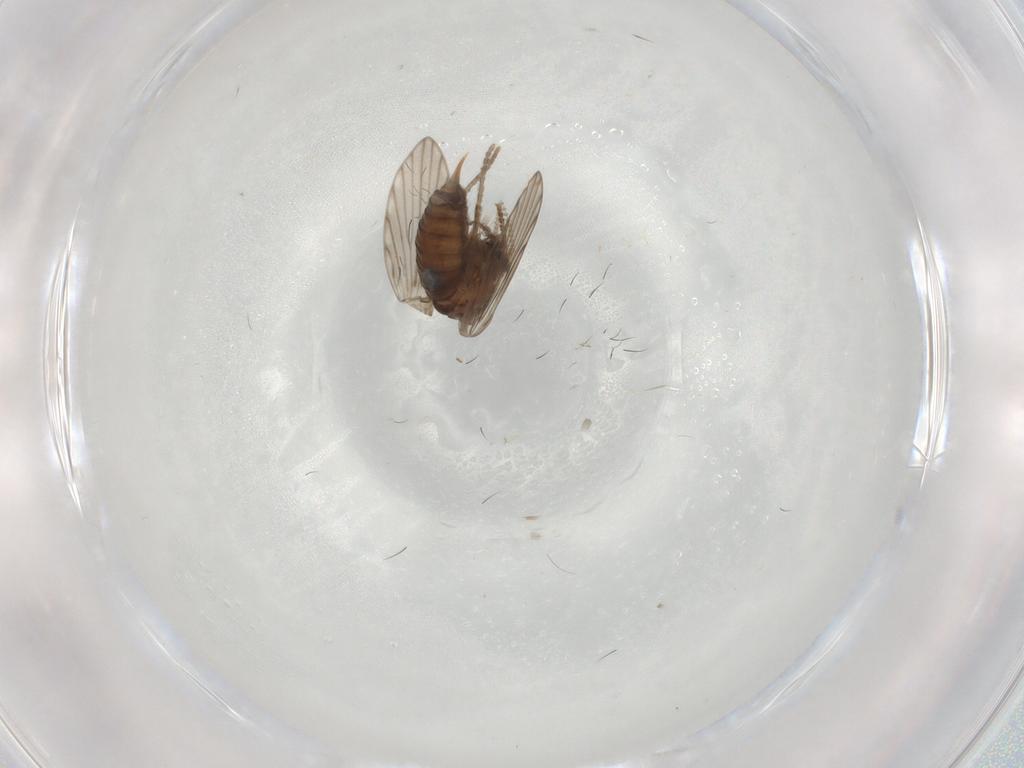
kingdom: Animalia
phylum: Arthropoda
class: Insecta
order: Diptera
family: Psychodidae
